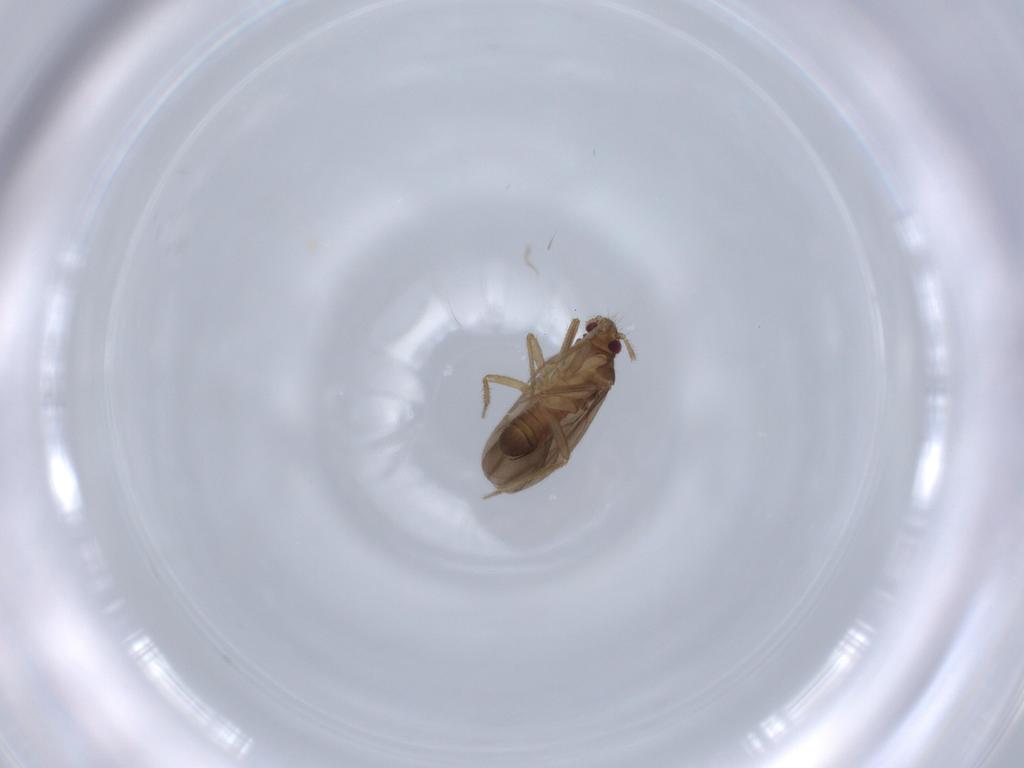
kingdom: Animalia
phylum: Arthropoda
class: Insecta
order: Hemiptera
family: Ceratocombidae
